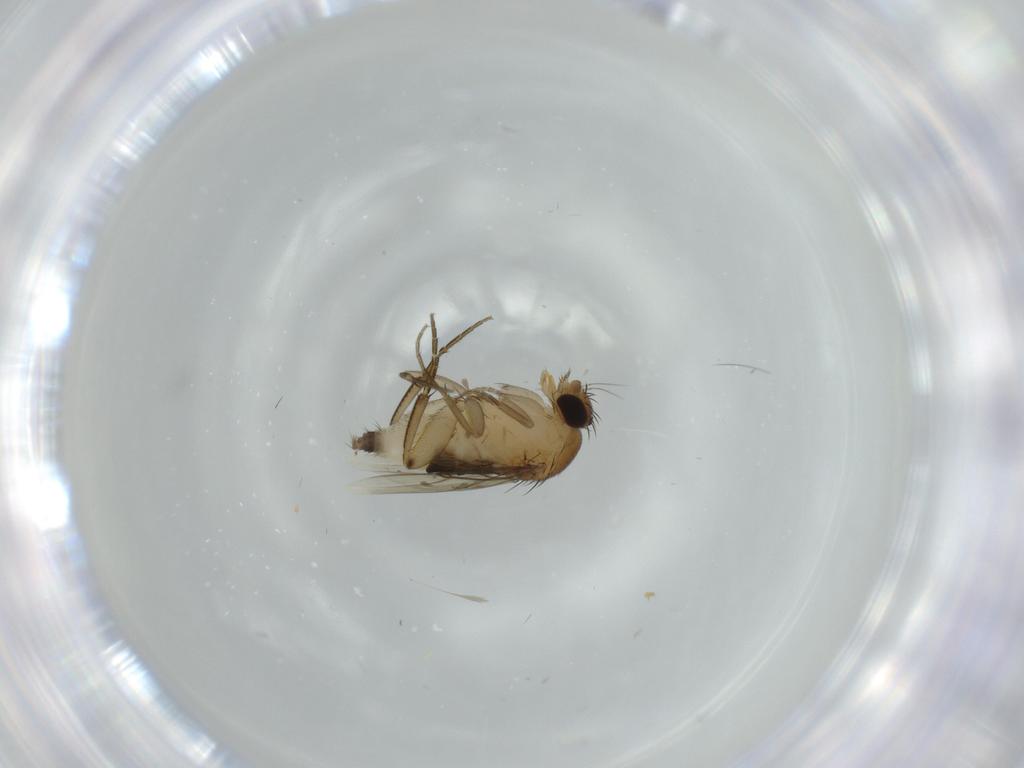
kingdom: Animalia
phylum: Arthropoda
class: Insecta
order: Diptera
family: Phoridae
